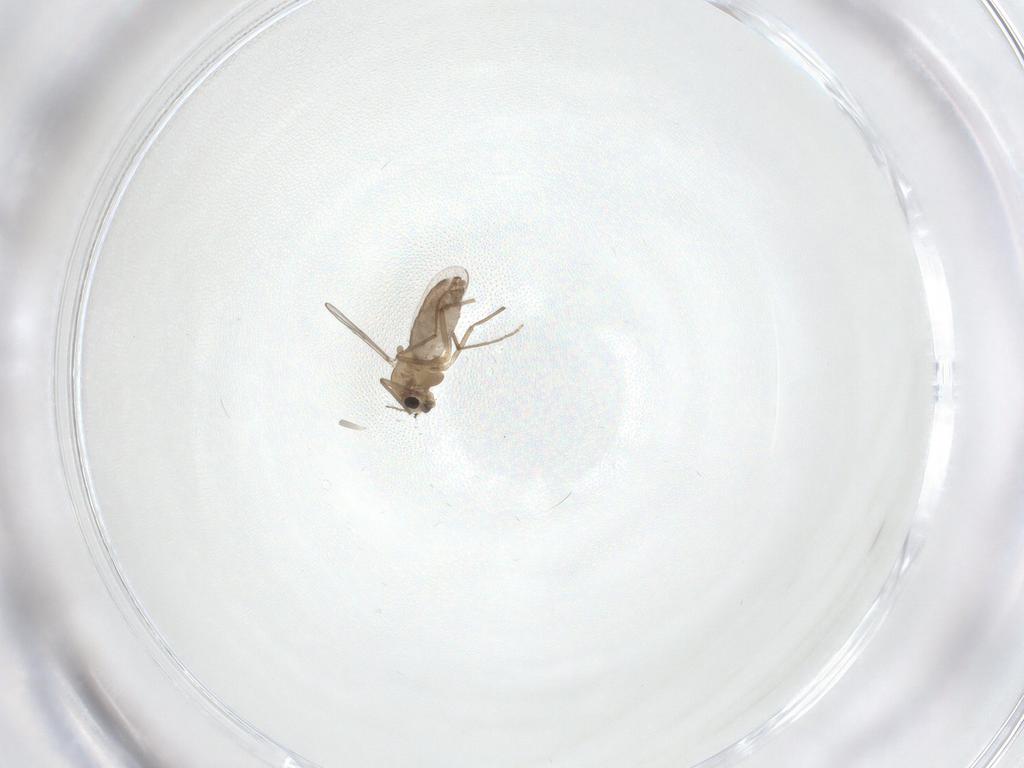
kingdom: Animalia
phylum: Arthropoda
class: Insecta
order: Diptera
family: Chironomidae
